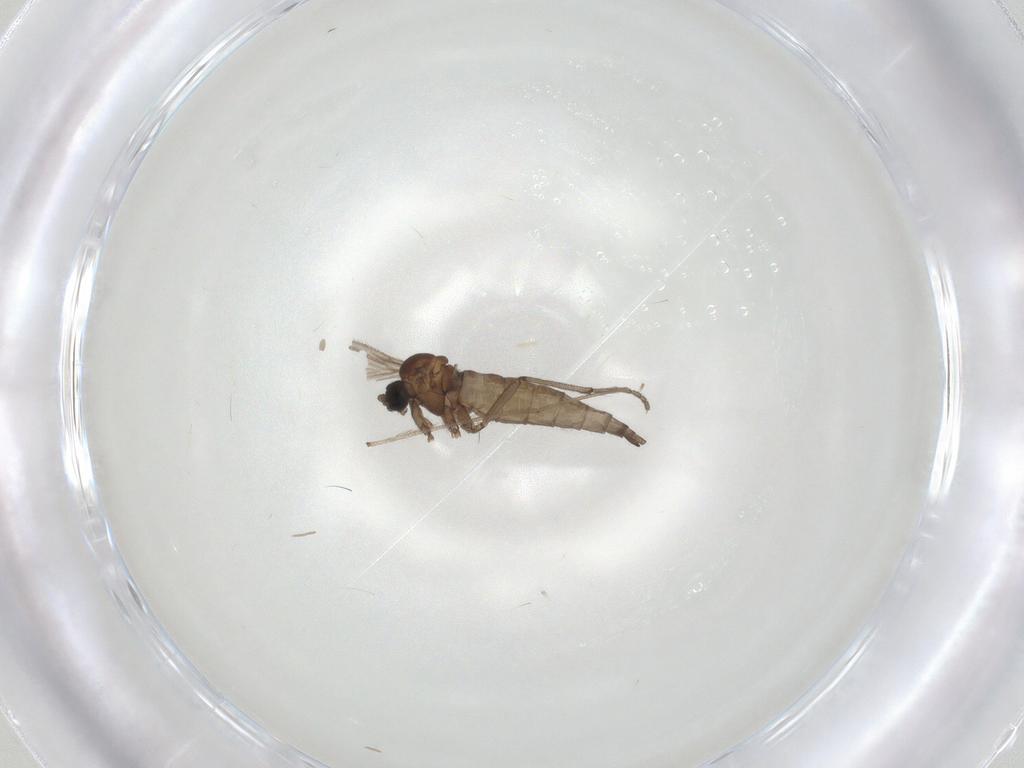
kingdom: Animalia
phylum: Arthropoda
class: Insecta
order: Diptera
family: Sciaridae
